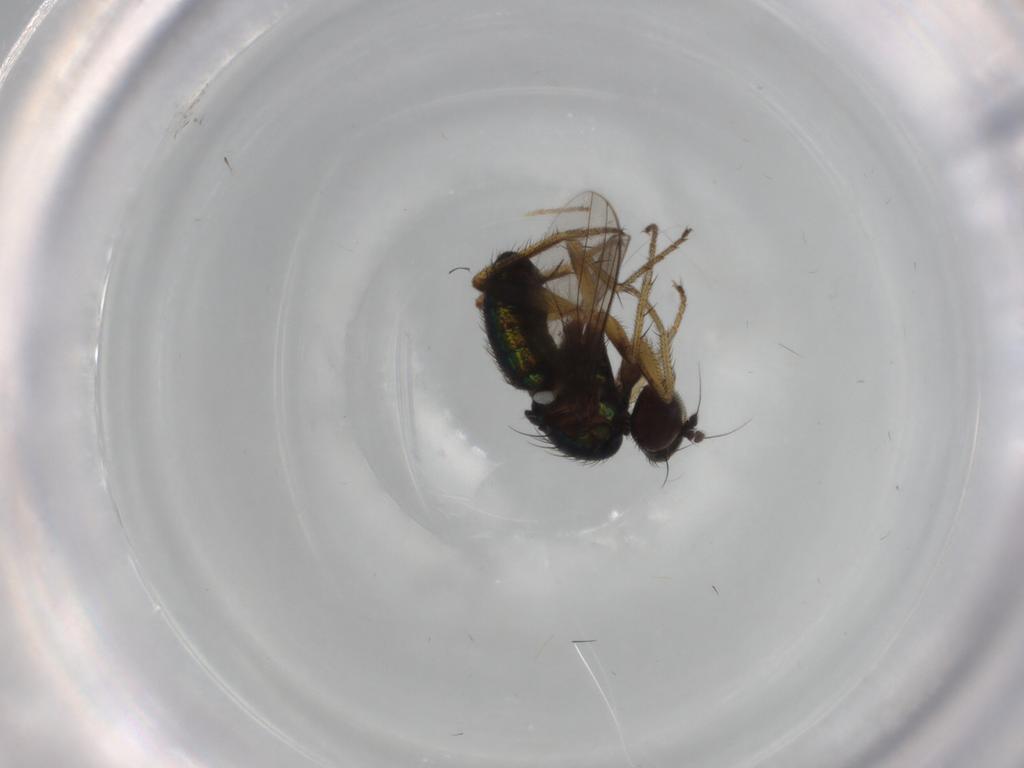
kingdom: Animalia
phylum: Arthropoda
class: Insecta
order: Diptera
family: Dolichopodidae
